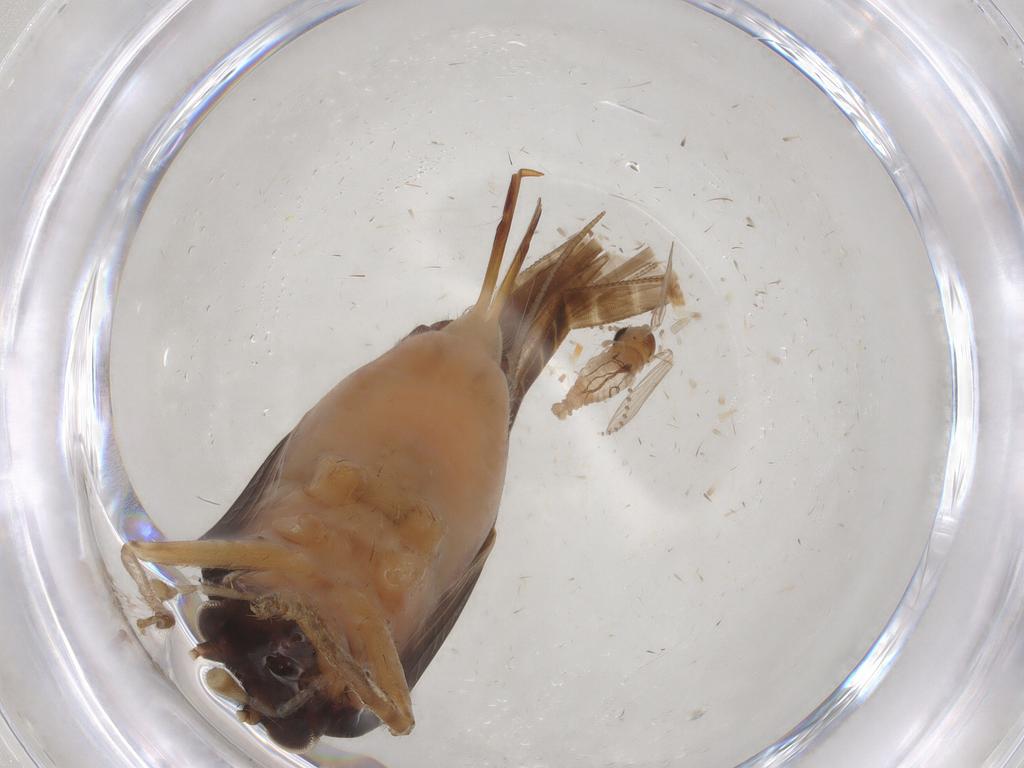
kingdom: Animalia
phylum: Arthropoda
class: Insecta
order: Orthoptera
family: Trigonidiidae
